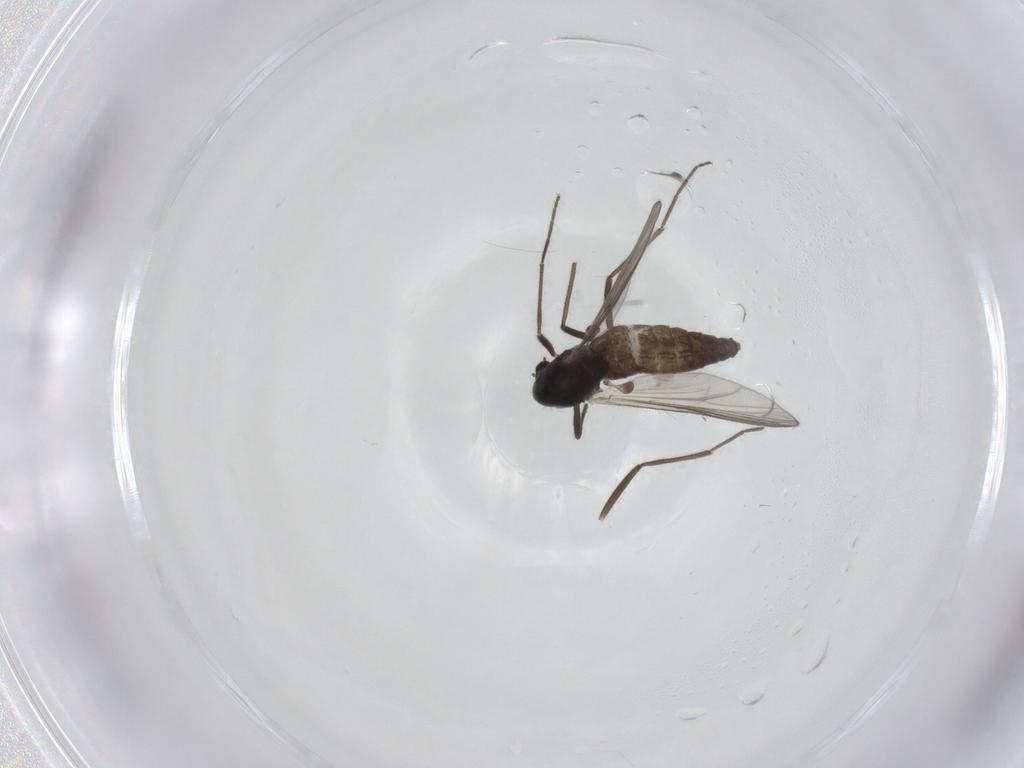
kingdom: Animalia
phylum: Arthropoda
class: Insecta
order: Diptera
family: Chironomidae
